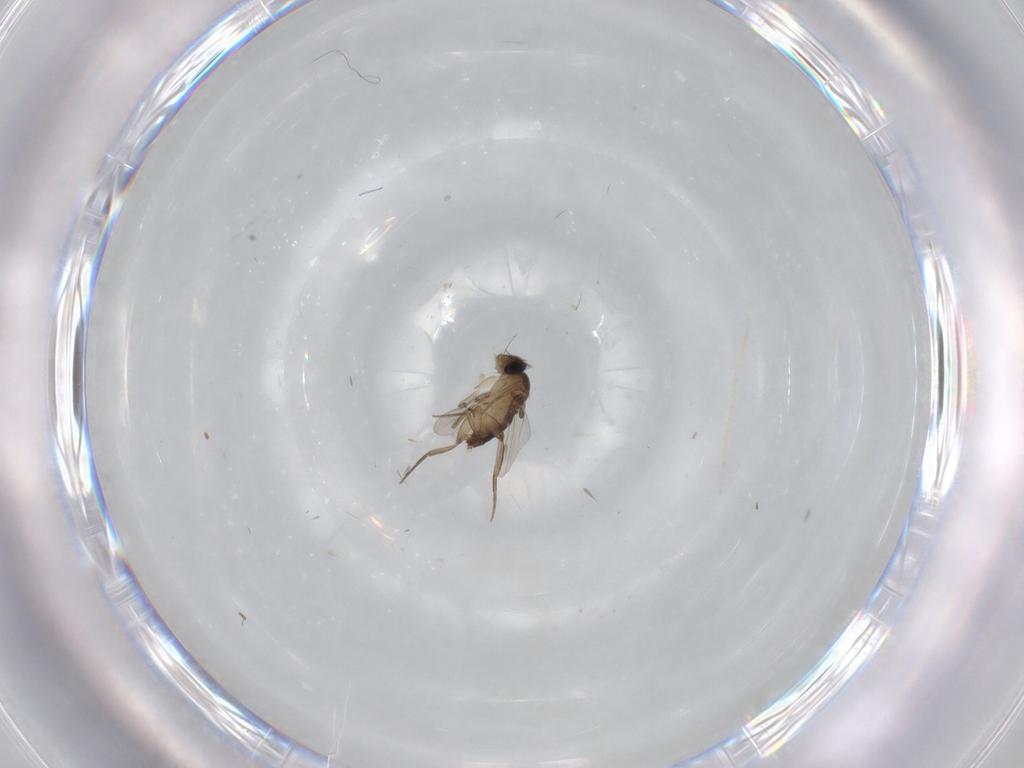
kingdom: Animalia
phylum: Arthropoda
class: Insecta
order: Diptera
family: Phoridae
